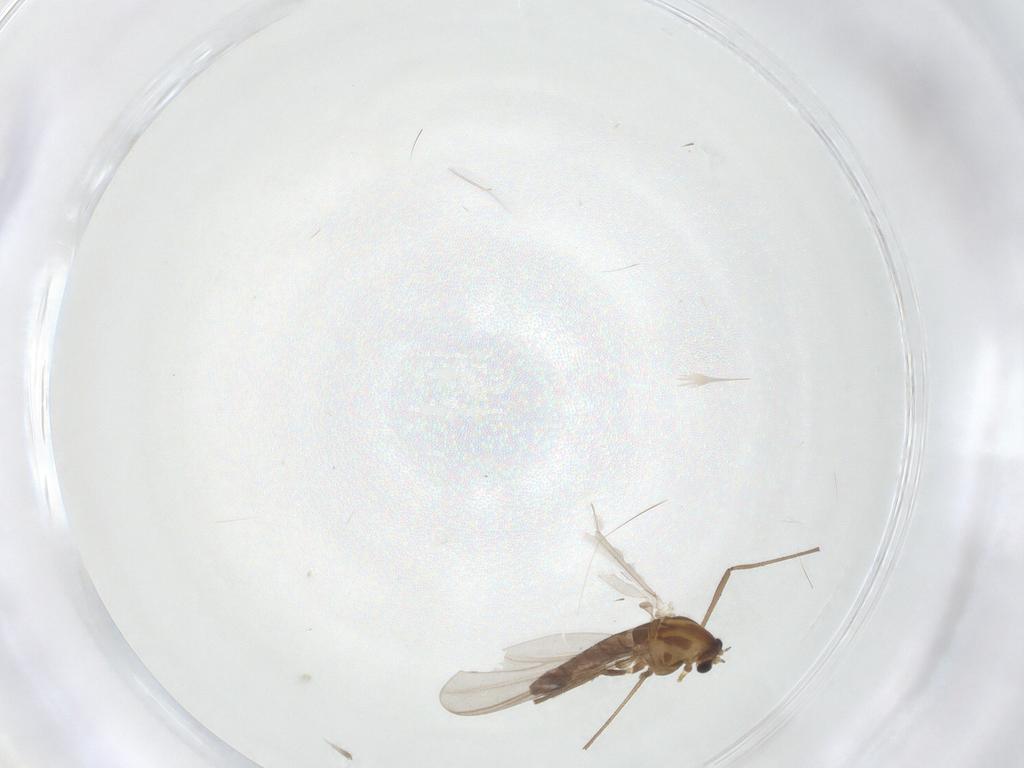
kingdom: Animalia
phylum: Arthropoda
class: Insecta
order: Diptera
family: Chironomidae
